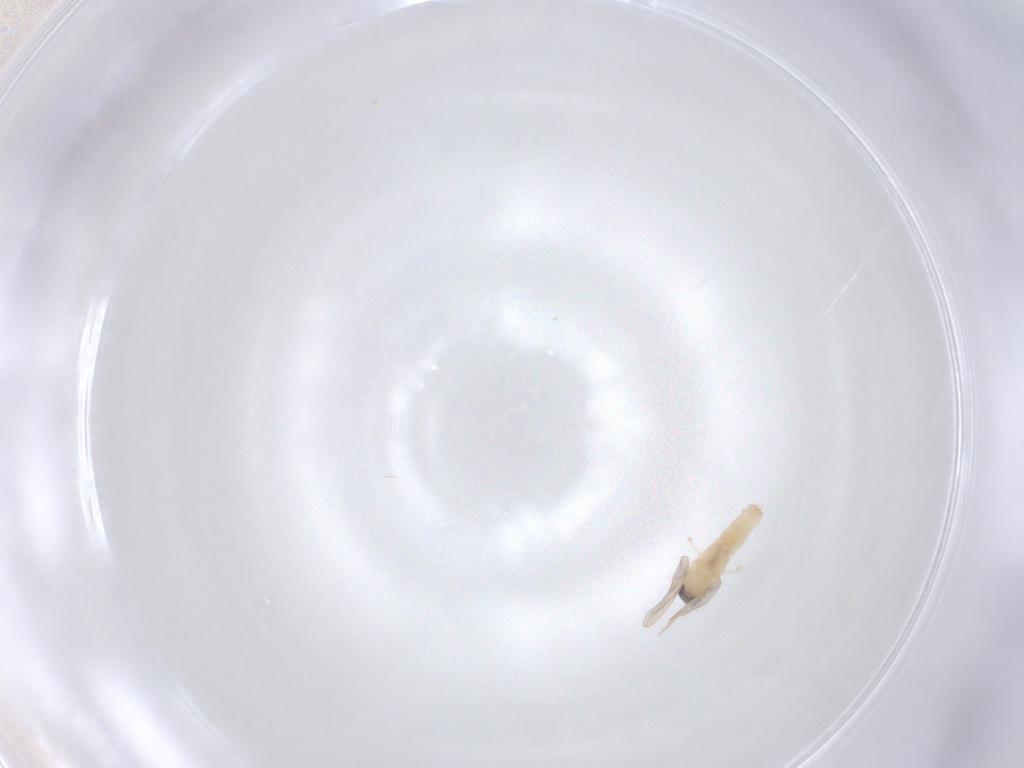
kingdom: Animalia
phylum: Arthropoda
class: Insecta
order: Diptera
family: Cecidomyiidae
